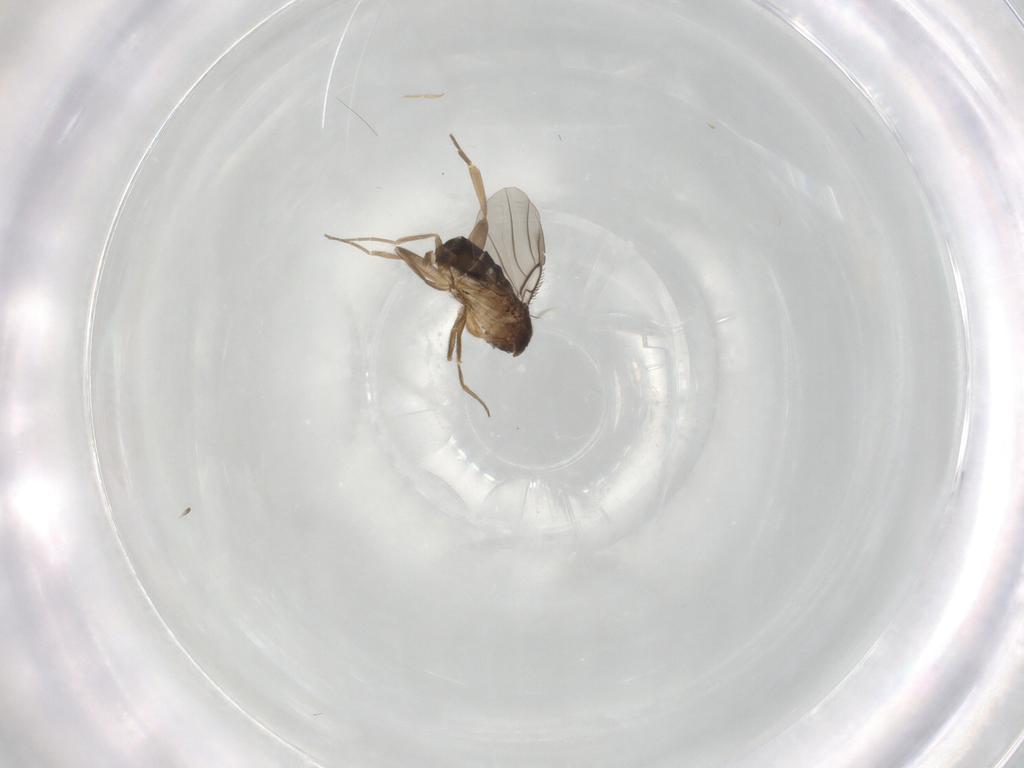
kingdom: Animalia
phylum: Arthropoda
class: Insecta
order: Diptera
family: Phoridae
